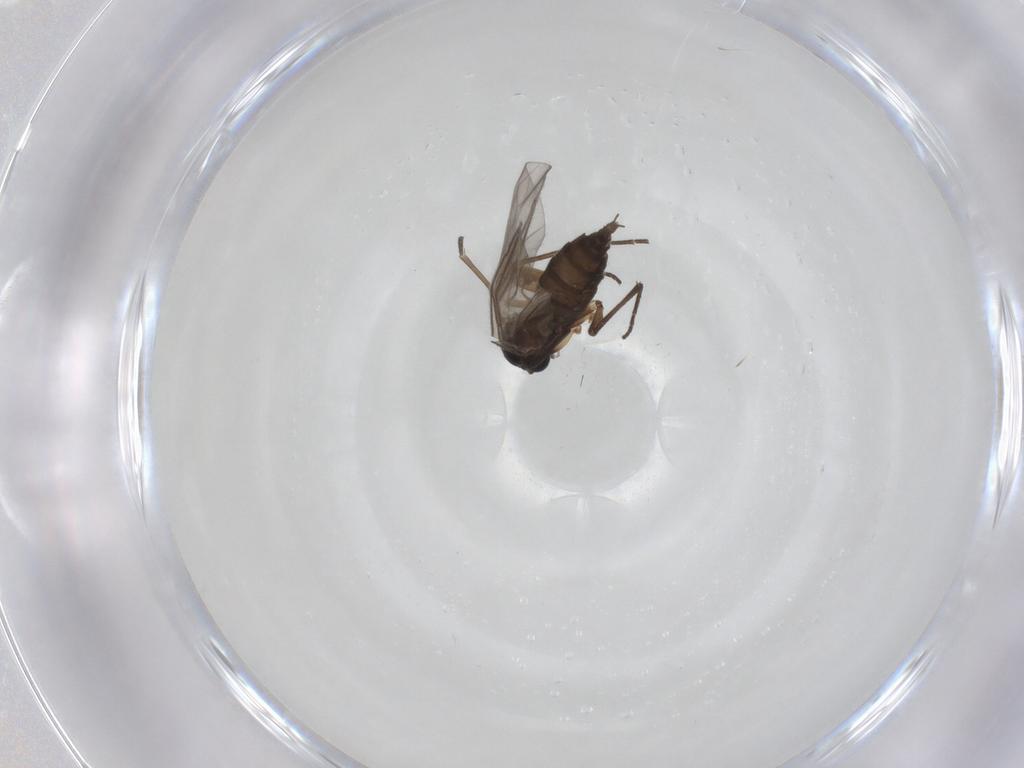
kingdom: Animalia
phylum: Arthropoda
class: Insecta
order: Diptera
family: Sciaridae
